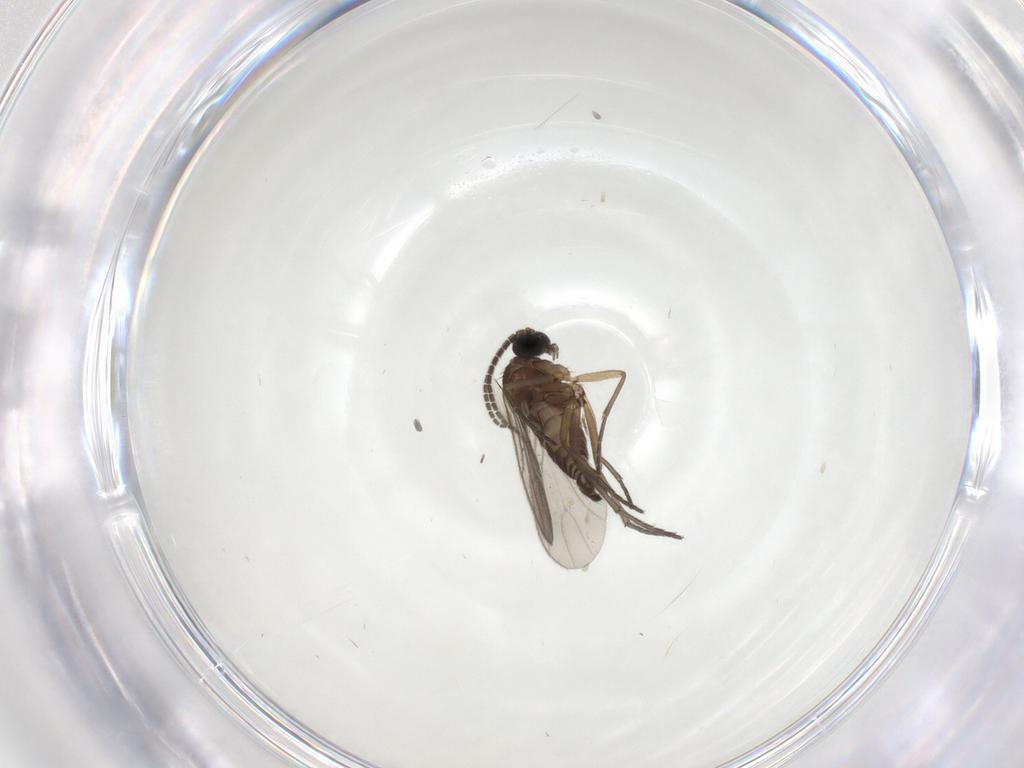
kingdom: Animalia
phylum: Arthropoda
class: Insecta
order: Diptera
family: Sciaridae
